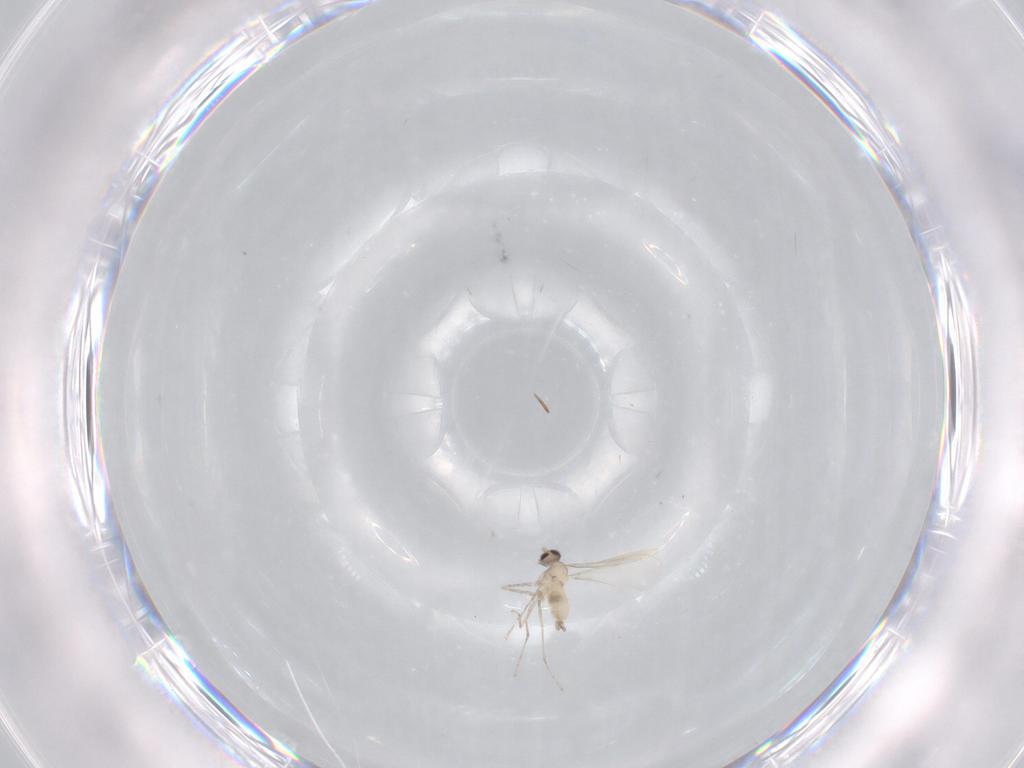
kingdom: Animalia
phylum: Arthropoda
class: Insecta
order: Diptera
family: Cecidomyiidae
